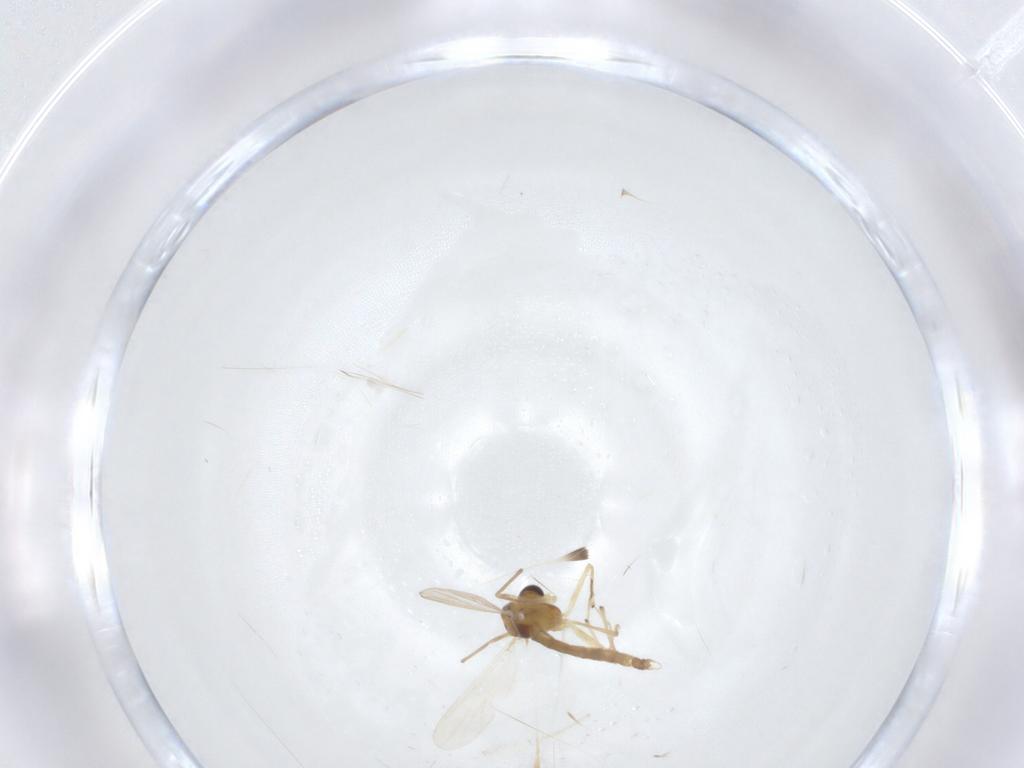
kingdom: Animalia
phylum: Arthropoda
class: Insecta
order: Diptera
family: Chironomidae
